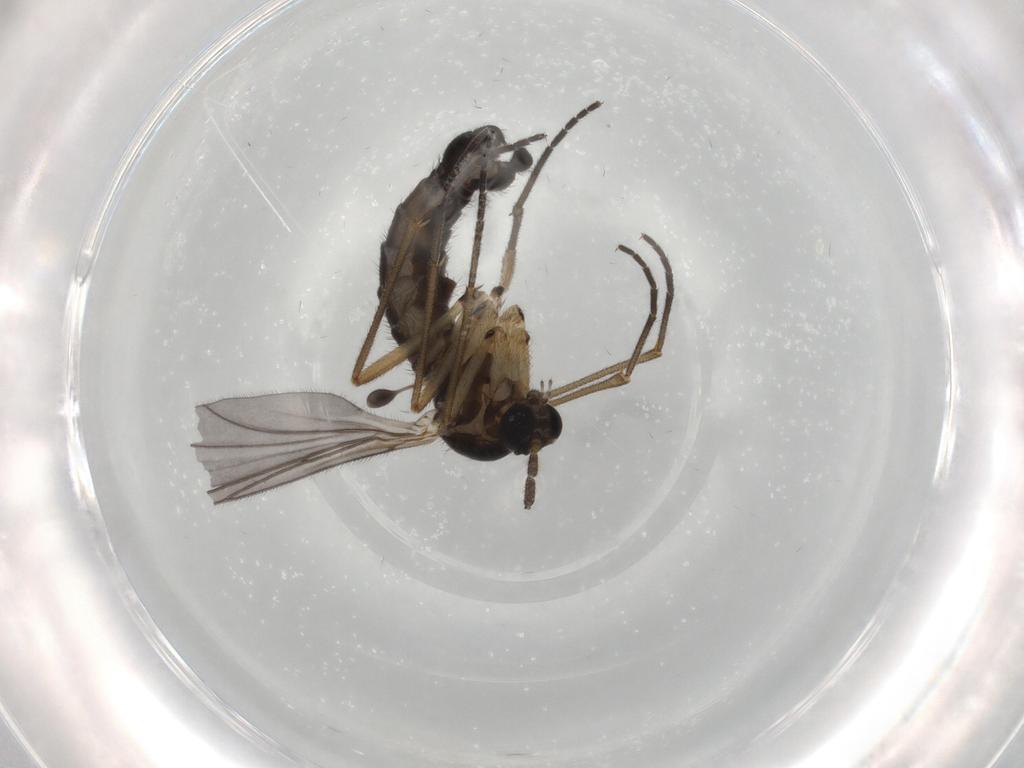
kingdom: Animalia
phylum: Arthropoda
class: Insecta
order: Diptera
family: Sciaridae
